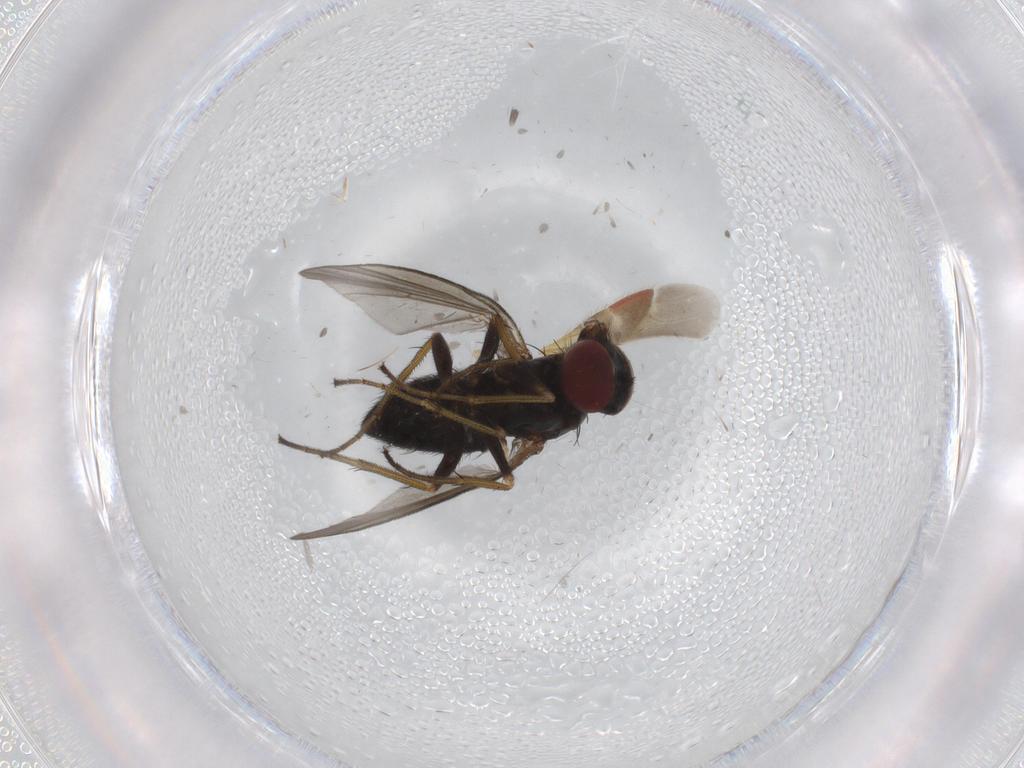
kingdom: Animalia
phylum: Arthropoda
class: Insecta
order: Diptera
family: Dolichopodidae
